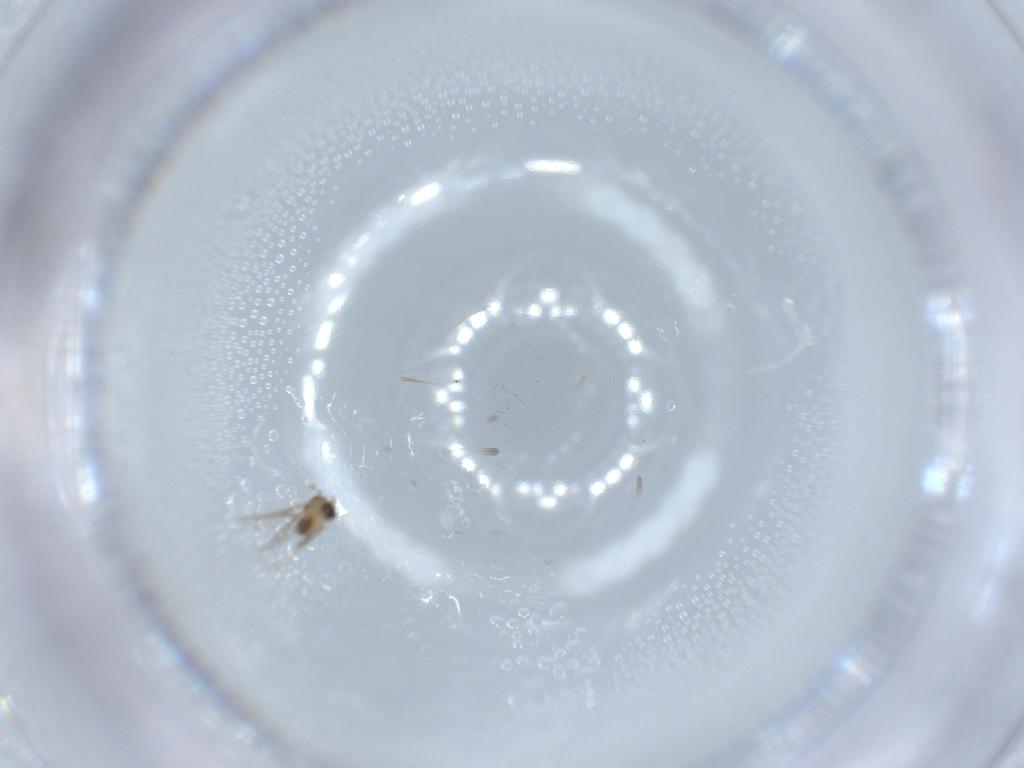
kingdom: Animalia
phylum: Arthropoda
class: Insecta
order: Diptera
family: Cecidomyiidae
